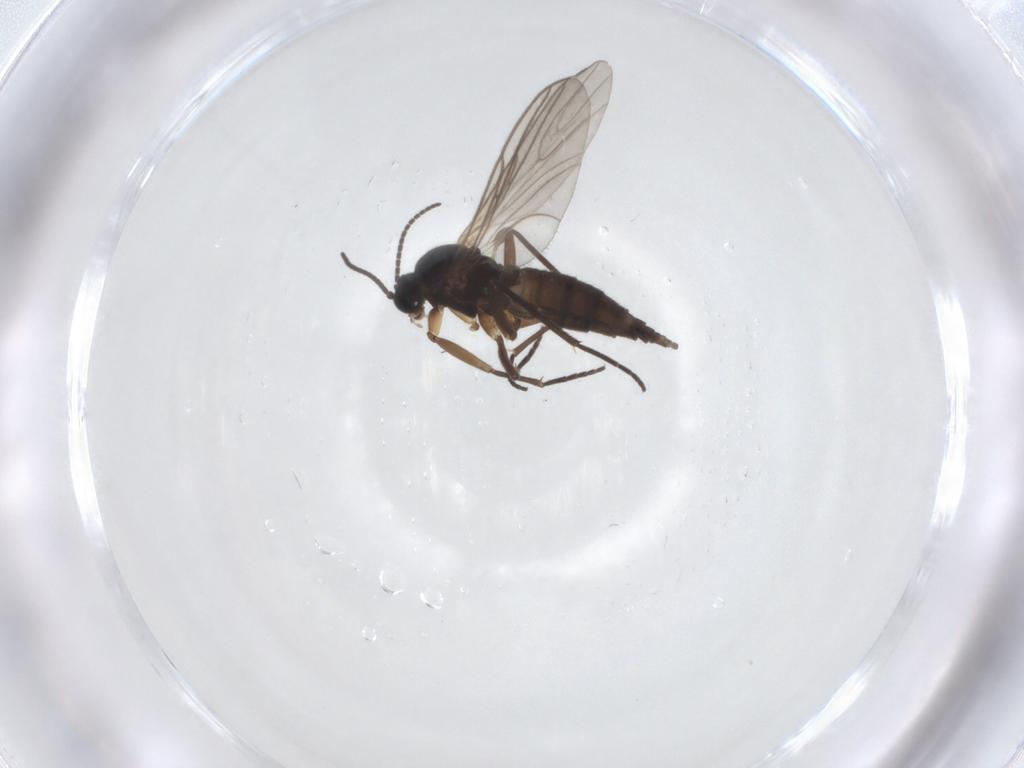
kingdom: Animalia
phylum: Arthropoda
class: Insecta
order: Diptera
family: Sciaridae
